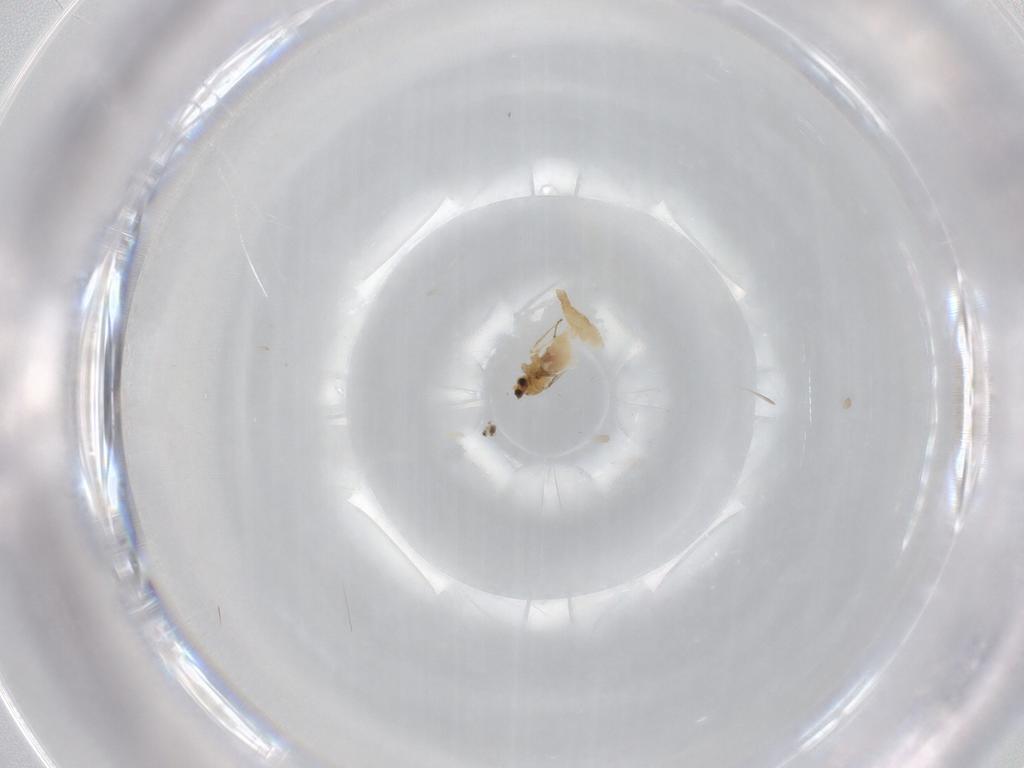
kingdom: Animalia
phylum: Arthropoda
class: Insecta
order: Diptera
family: Cecidomyiidae
